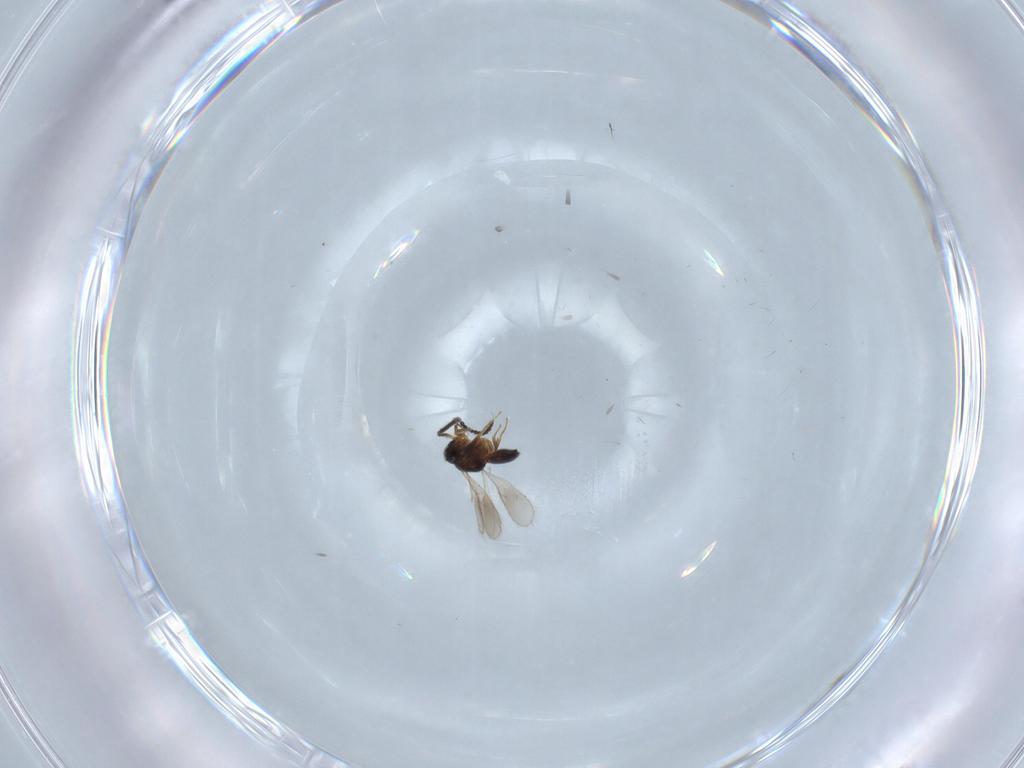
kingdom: Animalia
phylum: Arthropoda
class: Insecta
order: Hymenoptera
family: Scelionidae
